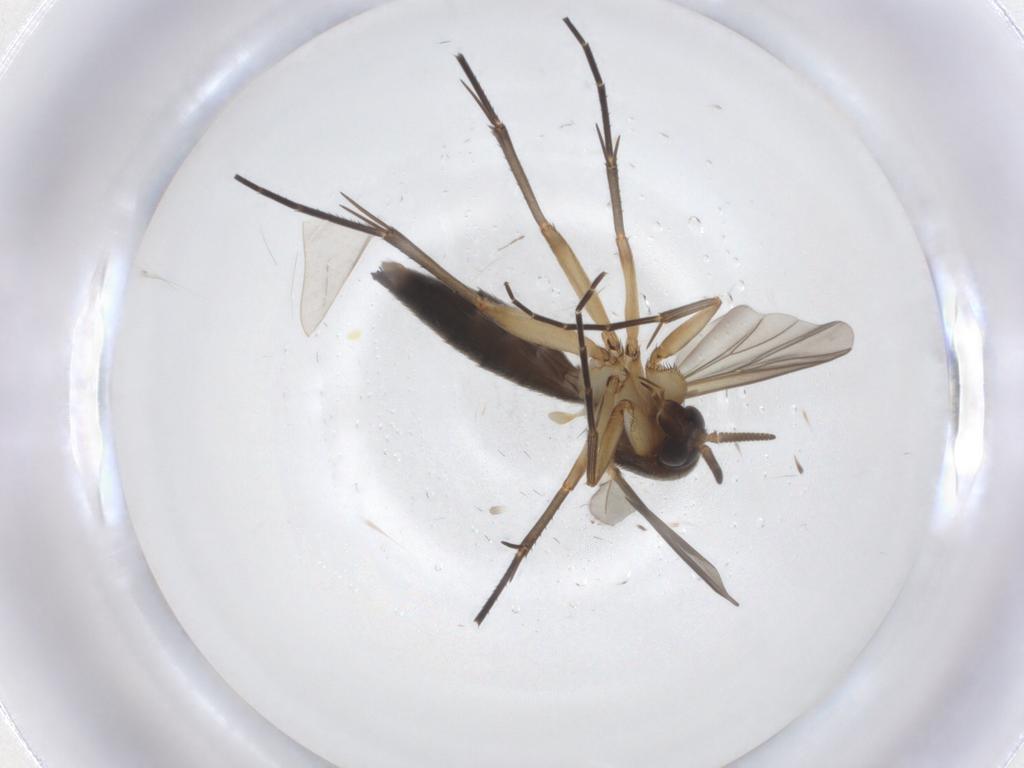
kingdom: Animalia
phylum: Arthropoda
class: Insecta
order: Diptera
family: Mycetophilidae
